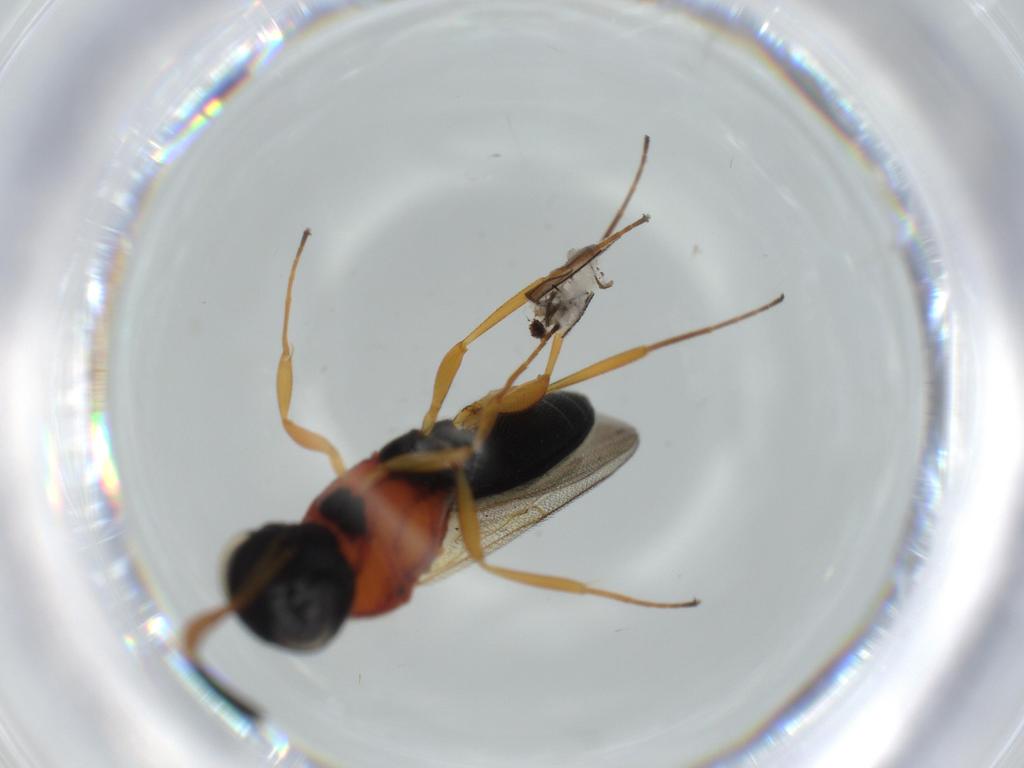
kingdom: Animalia
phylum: Arthropoda
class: Insecta
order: Hymenoptera
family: Scelionidae
